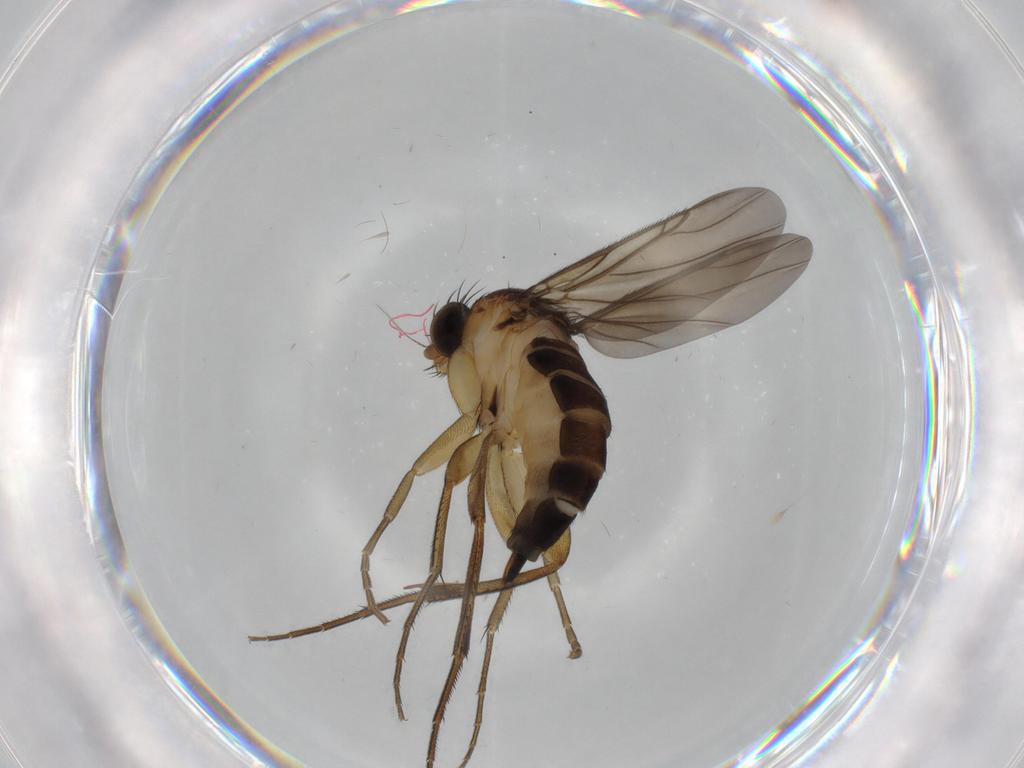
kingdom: Animalia
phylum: Arthropoda
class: Insecta
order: Diptera
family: Phoridae
